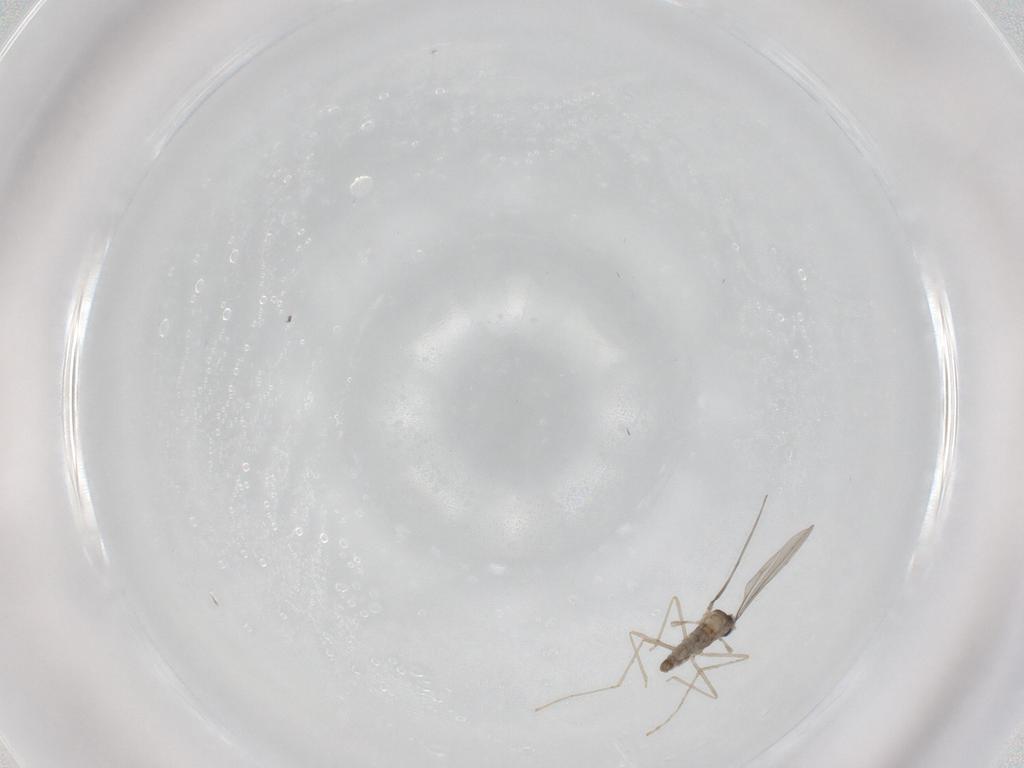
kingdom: Animalia
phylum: Arthropoda
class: Insecta
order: Diptera
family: Cecidomyiidae
